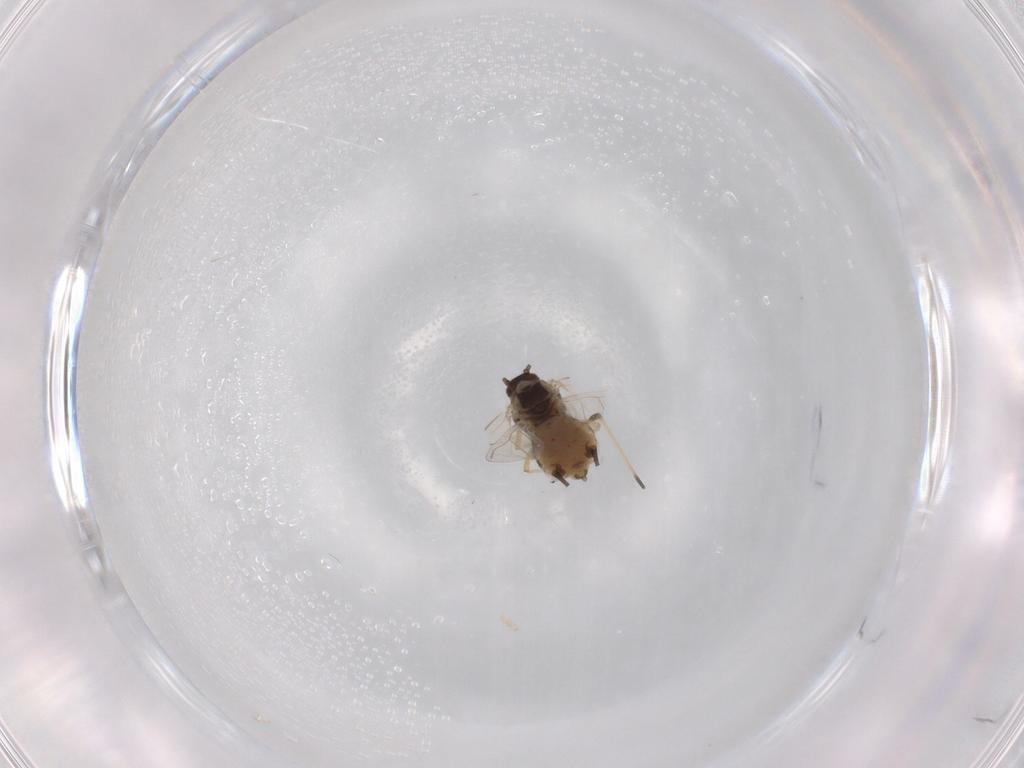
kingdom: Animalia
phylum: Arthropoda
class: Insecta
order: Hemiptera
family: Aphididae
